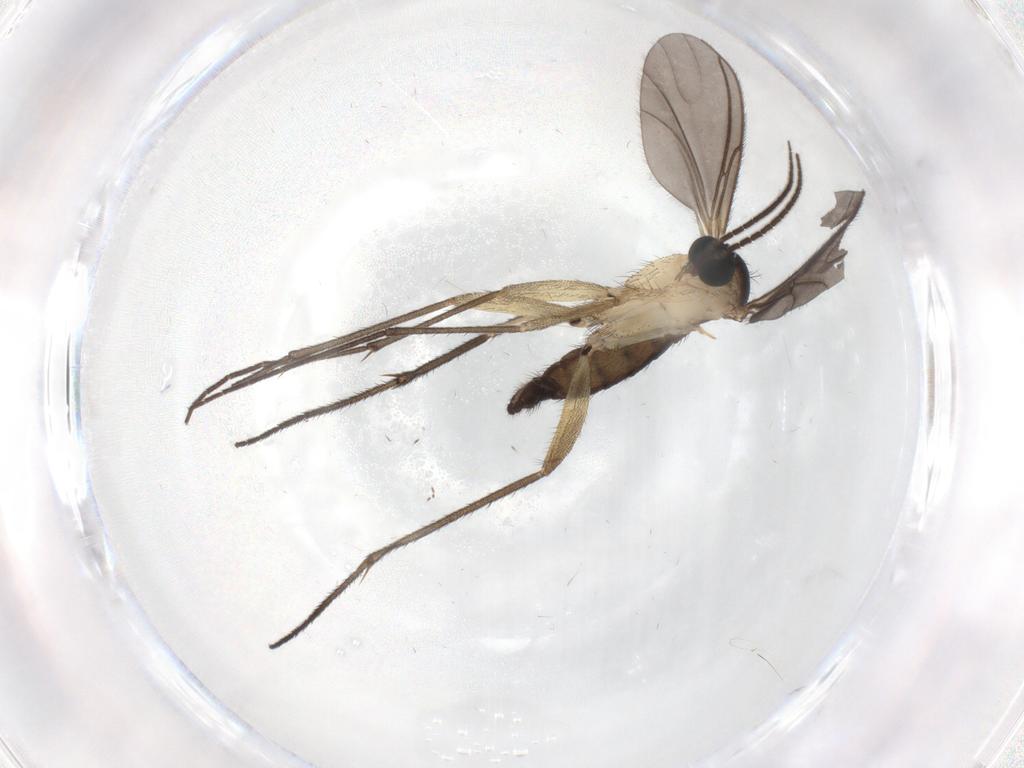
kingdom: Animalia
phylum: Arthropoda
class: Insecta
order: Diptera
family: Sciaridae
